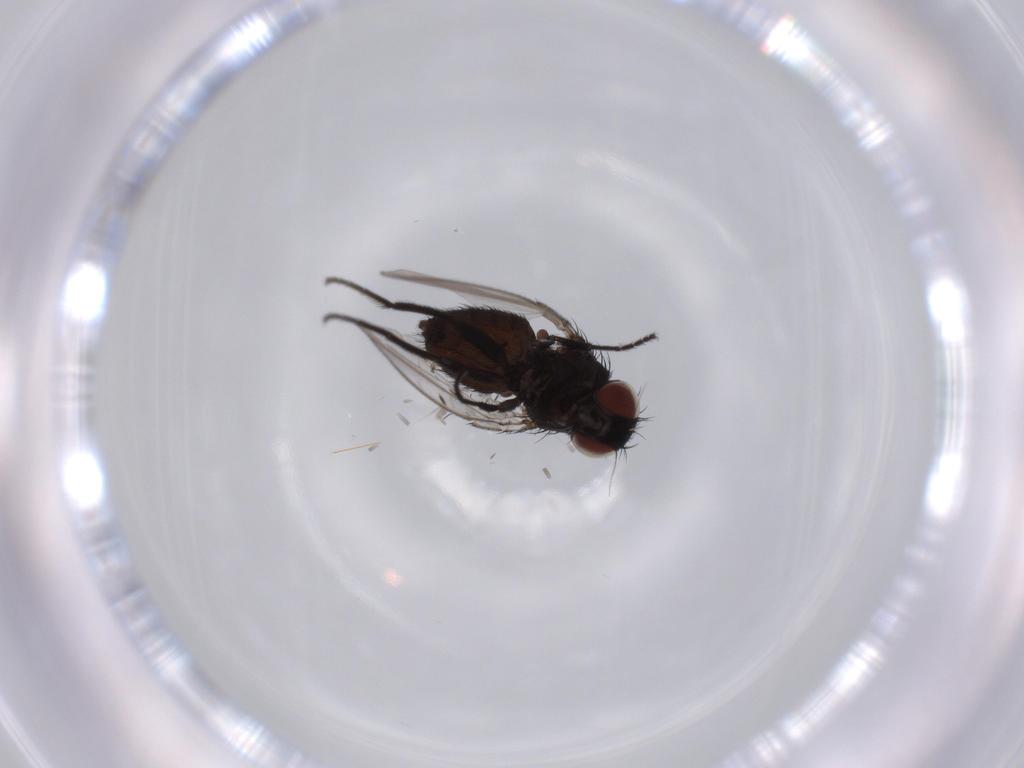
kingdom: Animalia
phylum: Arthropoda
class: Insecta
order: Diptera
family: Milichiidae
